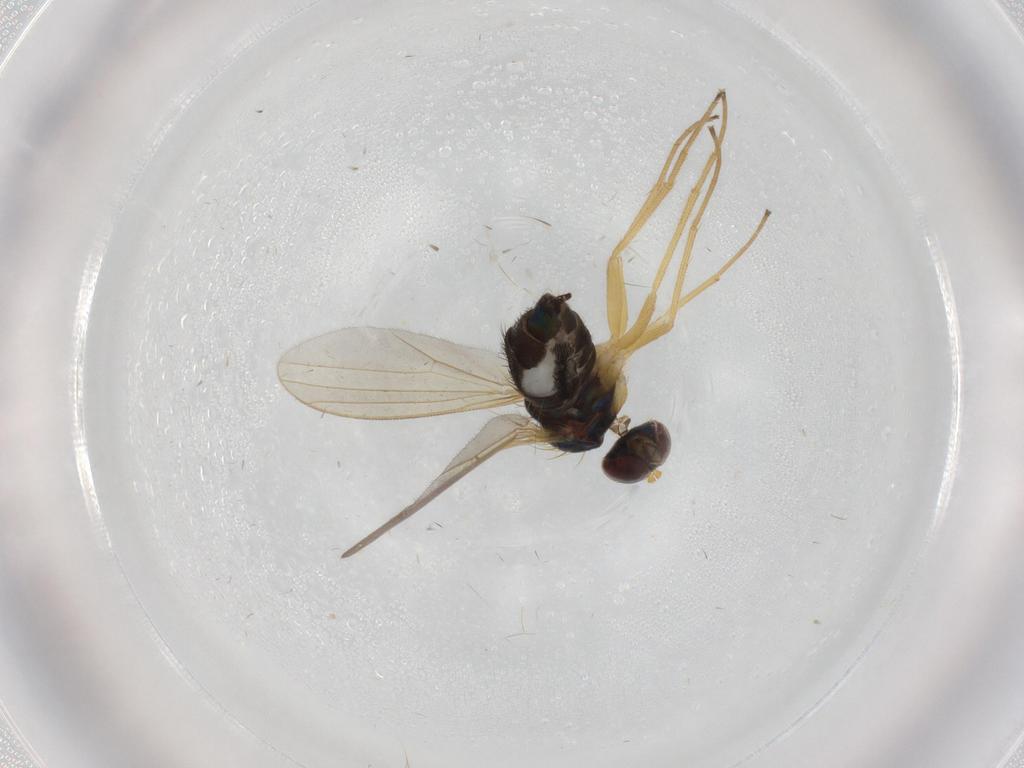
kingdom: Animalia
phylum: Arthropoda
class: Insecta
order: Diptera
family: Dolichopodidae
